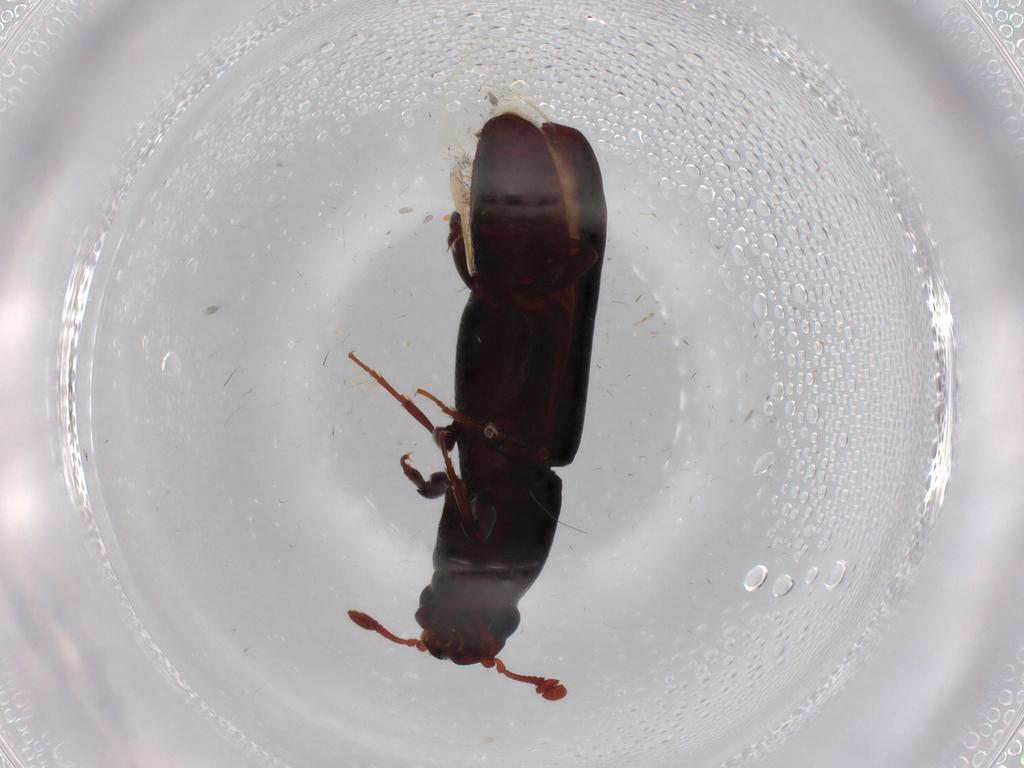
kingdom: Animalia
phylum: Arthropoda
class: Insecta
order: Coleoptera
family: Bothrideridae
